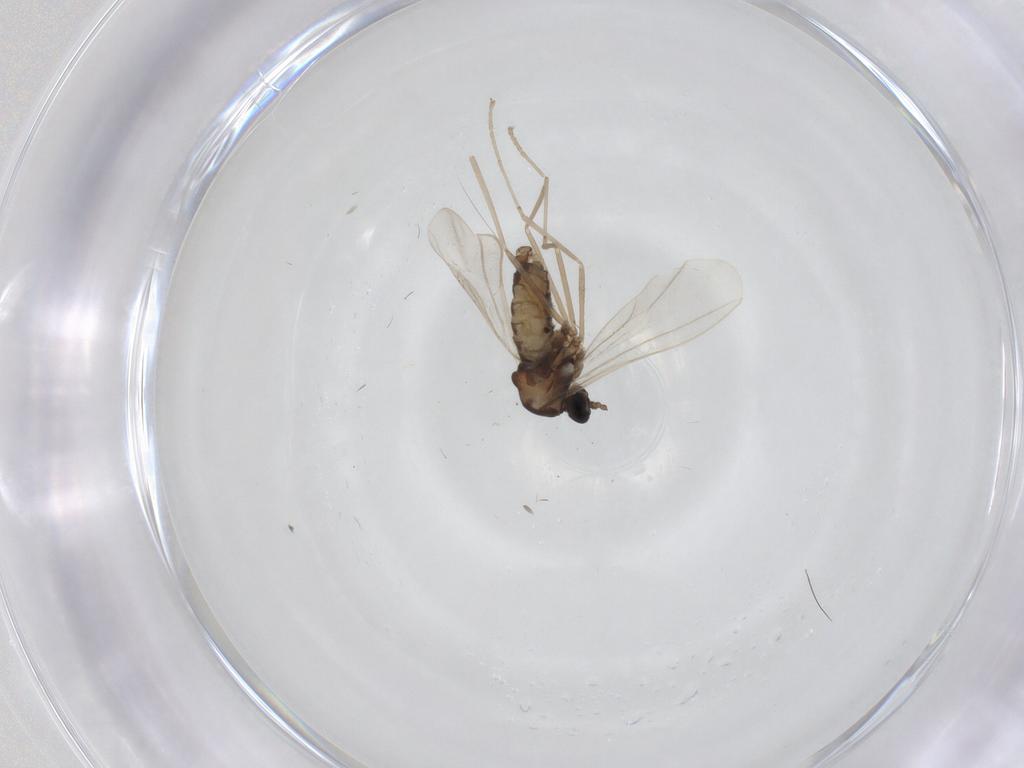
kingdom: Animalia
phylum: Arthropoda
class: Insecta
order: Diptera
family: Cecidomyiidae
